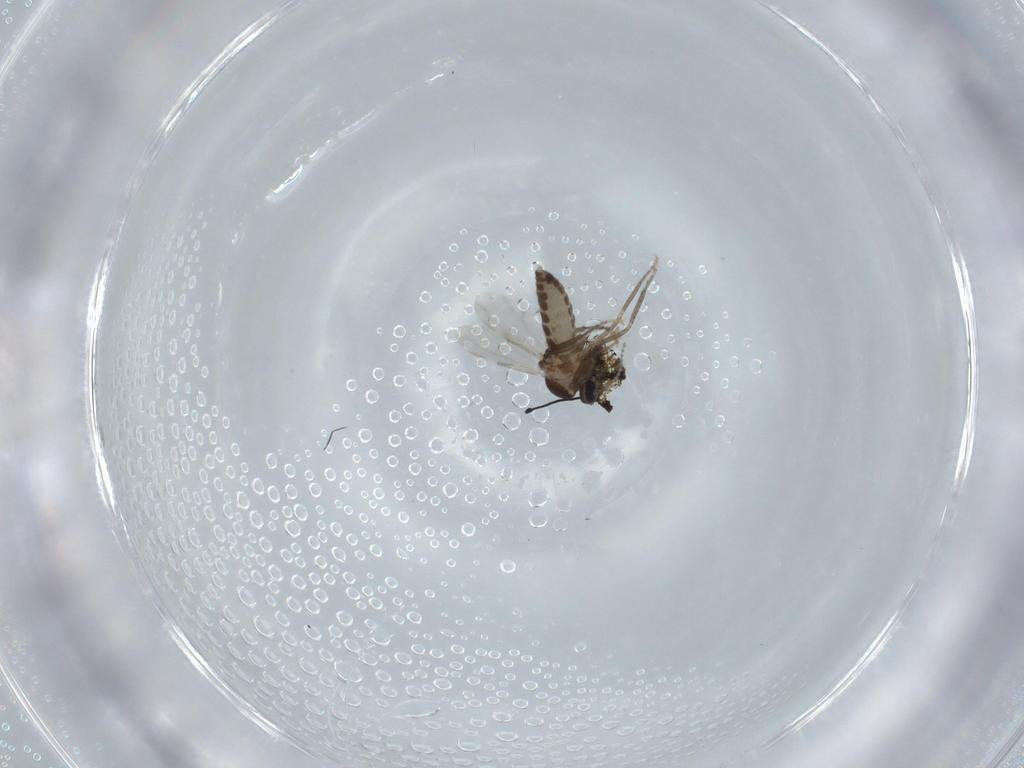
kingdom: Animalia
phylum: Arthropoda
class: Insecta
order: Diptera
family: Ceratopogonidae
